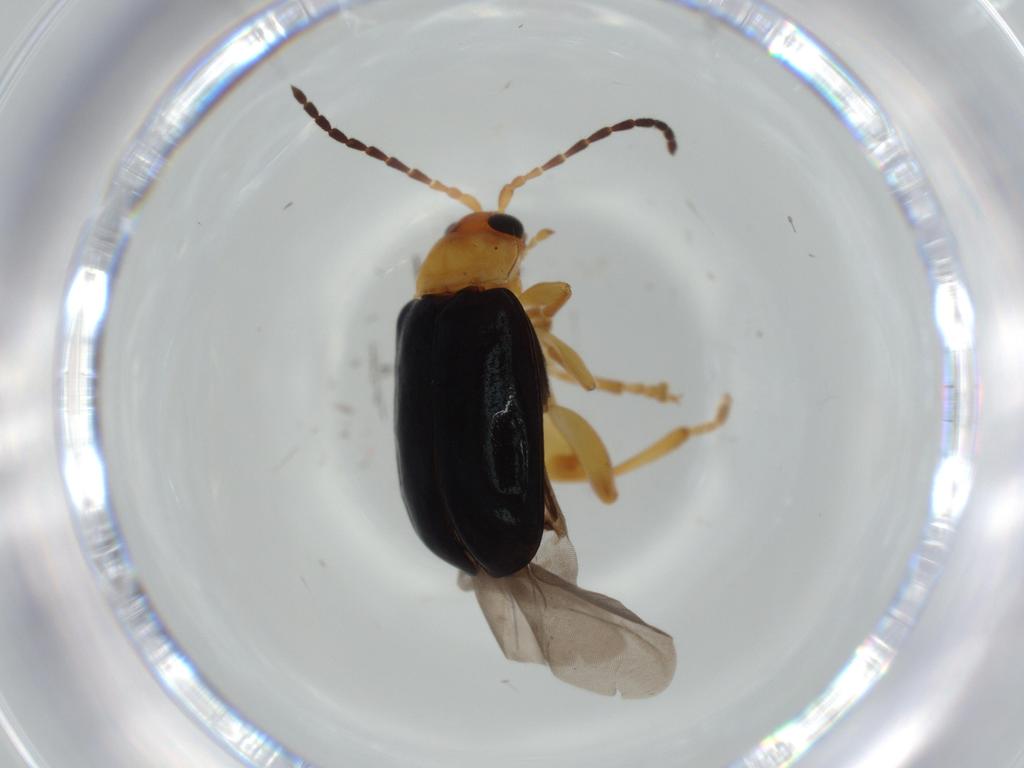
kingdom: Animalia
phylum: Arthropoda
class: Insecta
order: Coleoptera
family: Chrysomelidae
